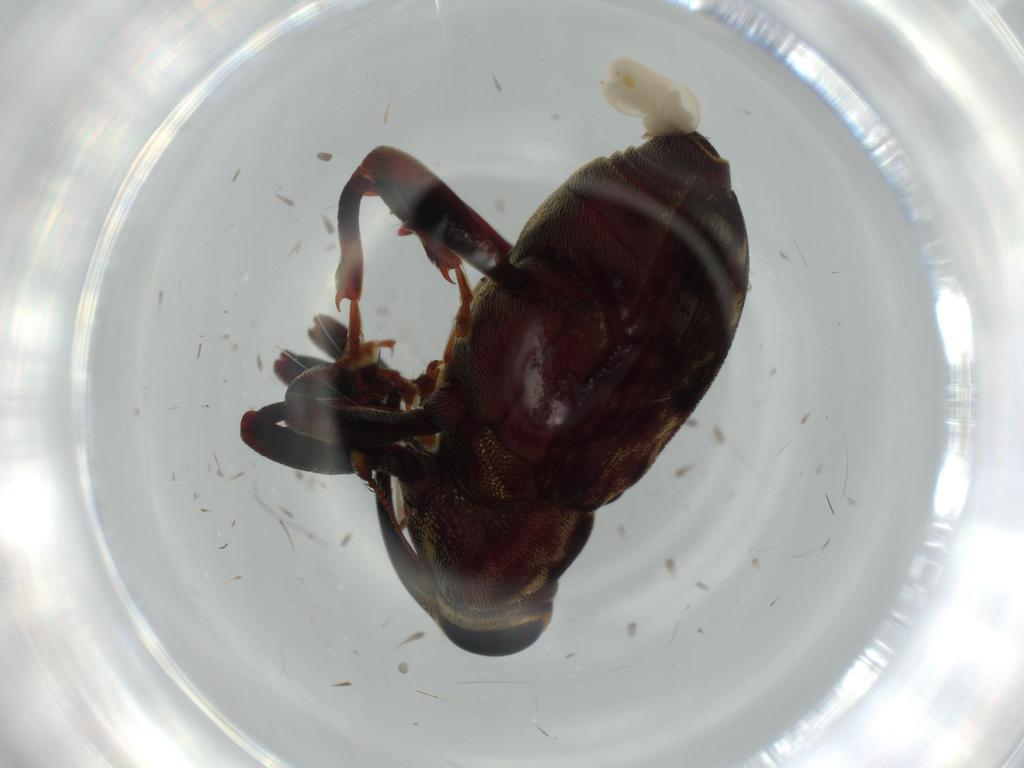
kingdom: Animalia
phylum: Arthropoda
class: Insecta
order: Coleoptera
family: Curculionidae
